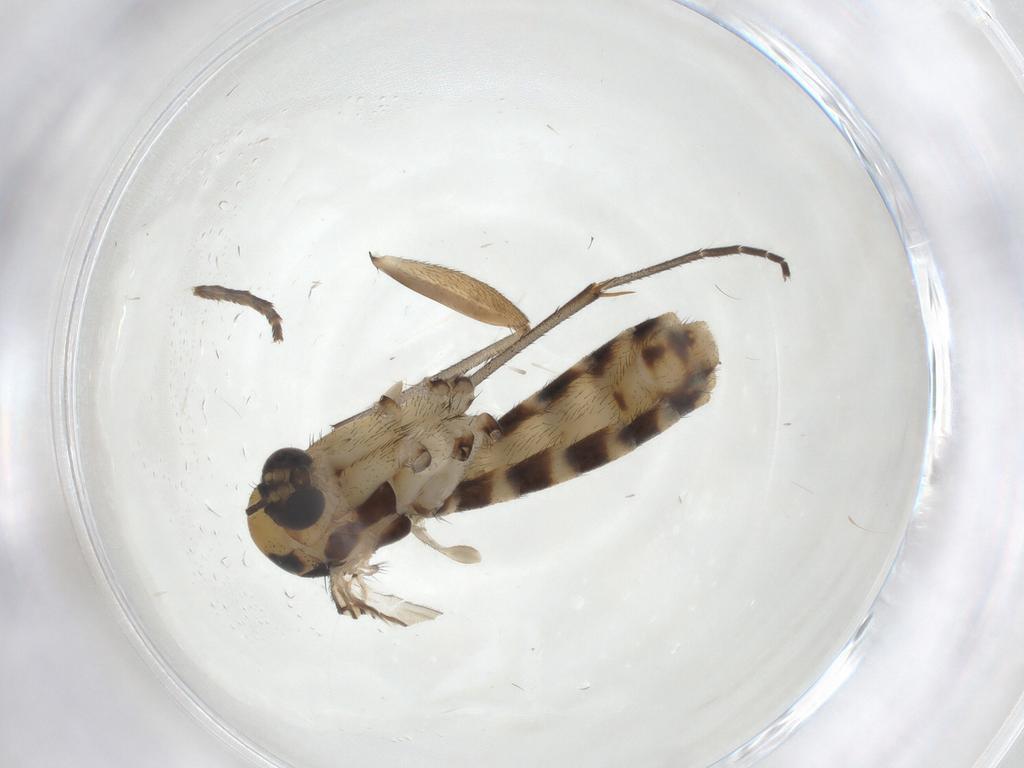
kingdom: Animalia
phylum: Arthropoda
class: Insecta
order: Diptera
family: Mycetophilidae
